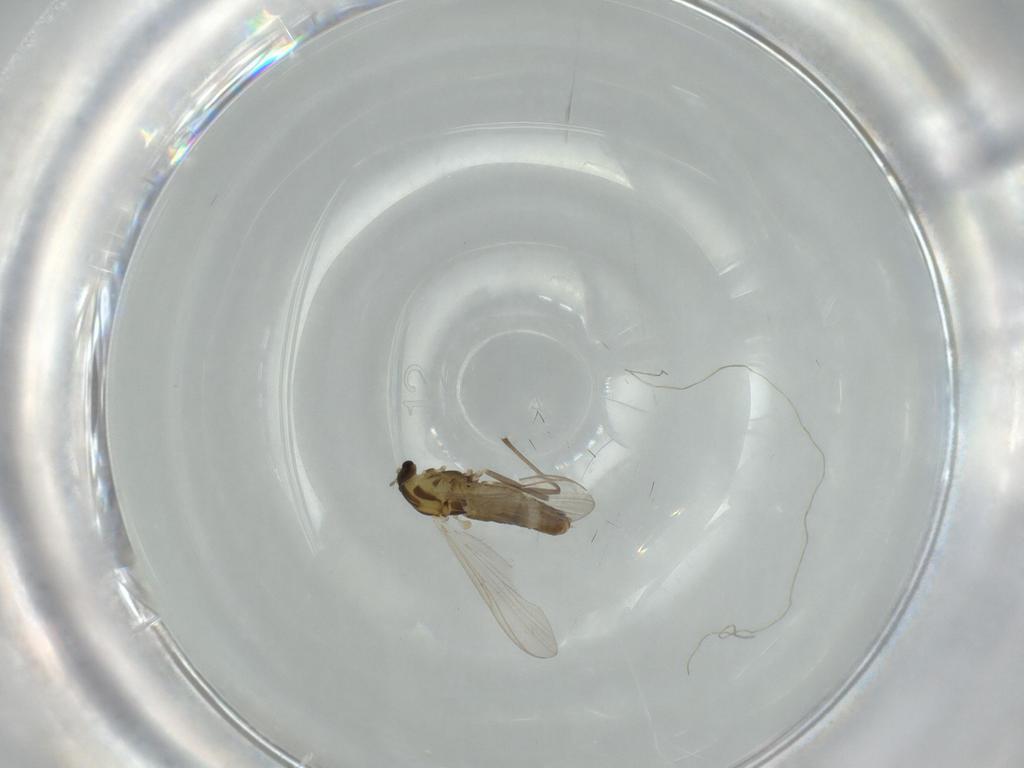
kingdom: Animalia
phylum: Arthropoda
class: Insecta
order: Diptera
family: Chironomidae
